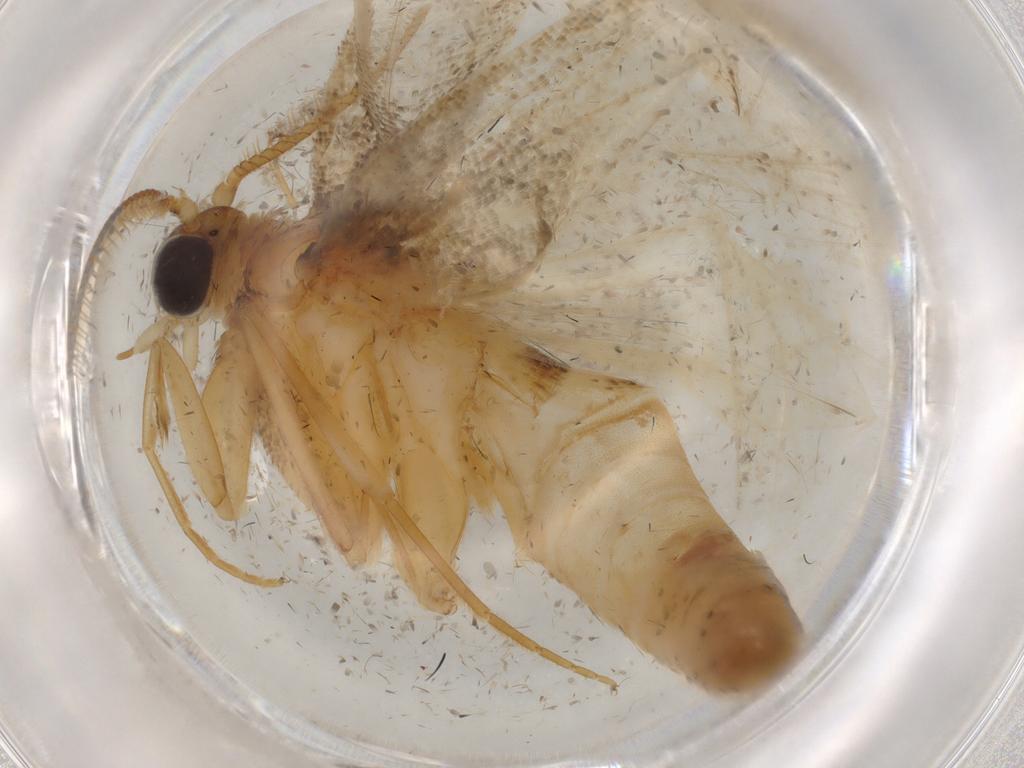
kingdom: Animalia
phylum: Arthropoda
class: Insecta
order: Lepidoptera
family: Pyralidae
